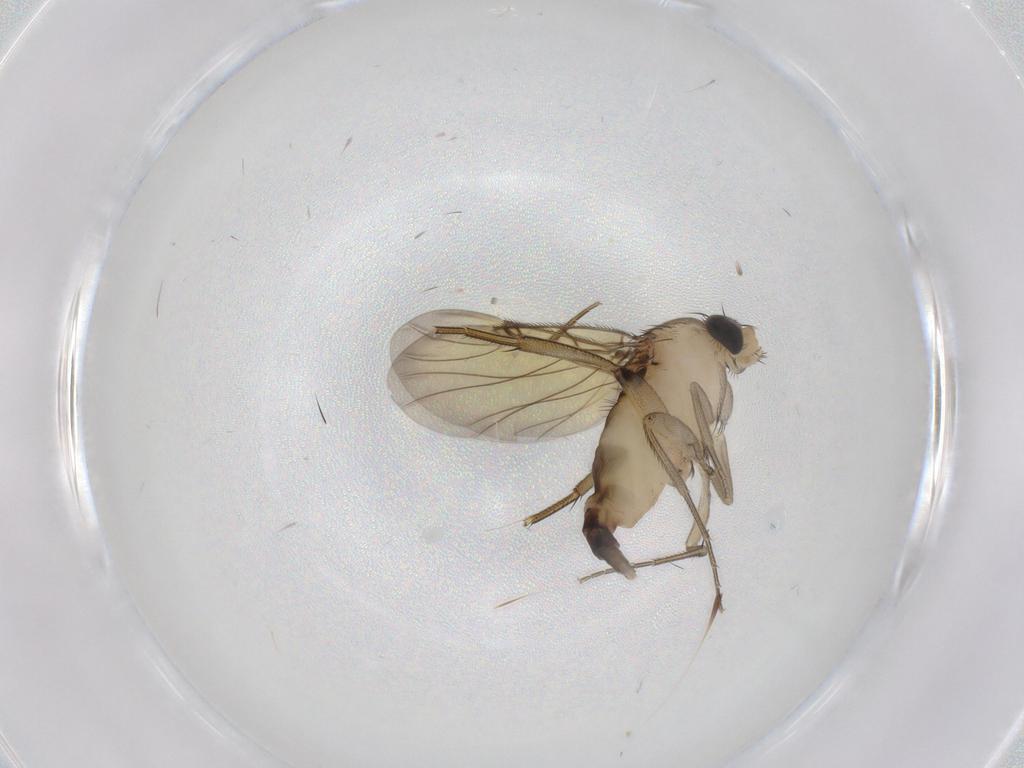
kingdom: Animalia
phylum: Arthropoda
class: Insecta
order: Diptera
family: Phoridae
